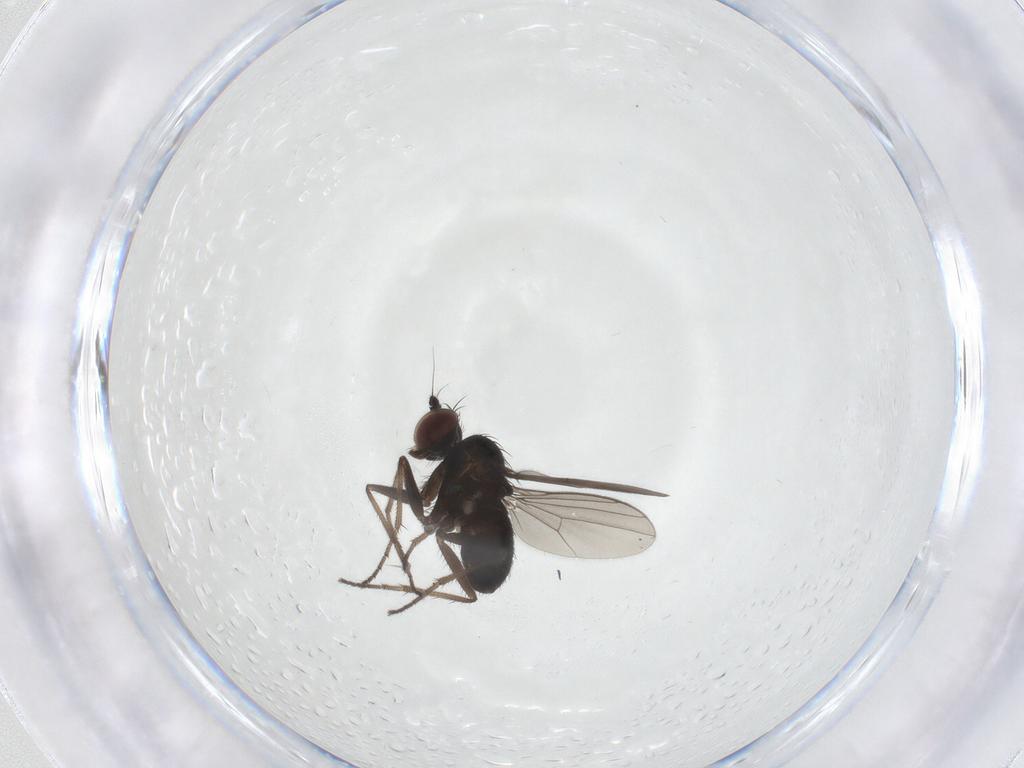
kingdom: Animalia
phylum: Arthropoda
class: Insecta
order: Diptera
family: Dolichopodidae
